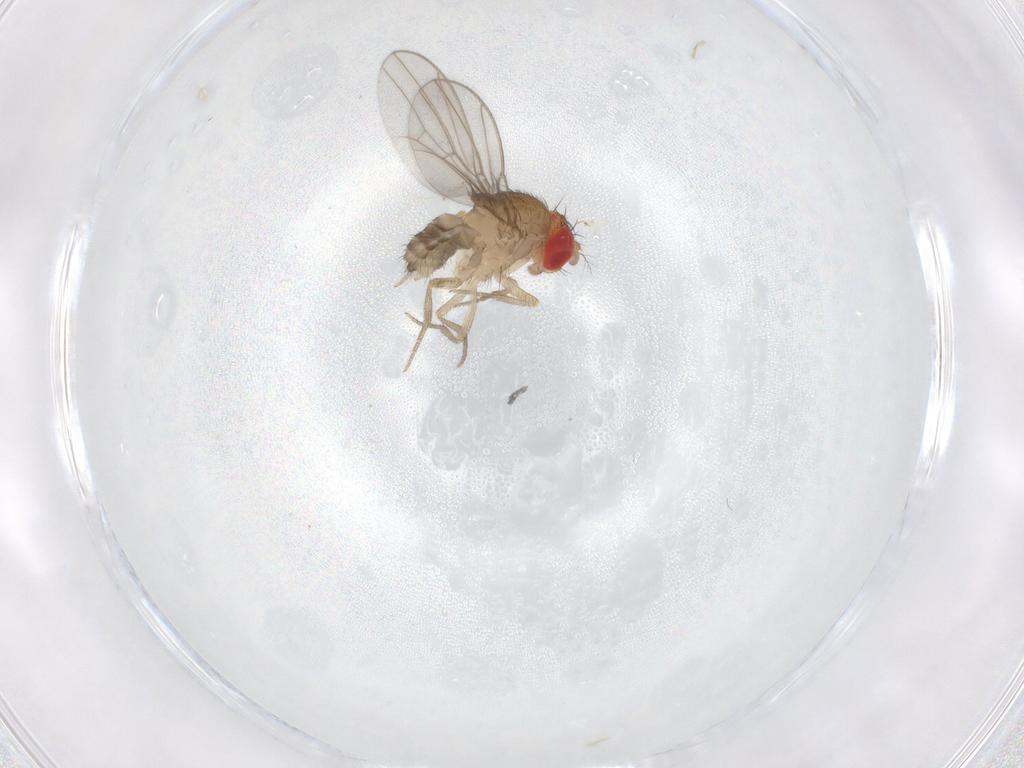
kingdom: Animalia
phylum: Arthropoda
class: Insecta
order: Diptera
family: Drosophilidae
